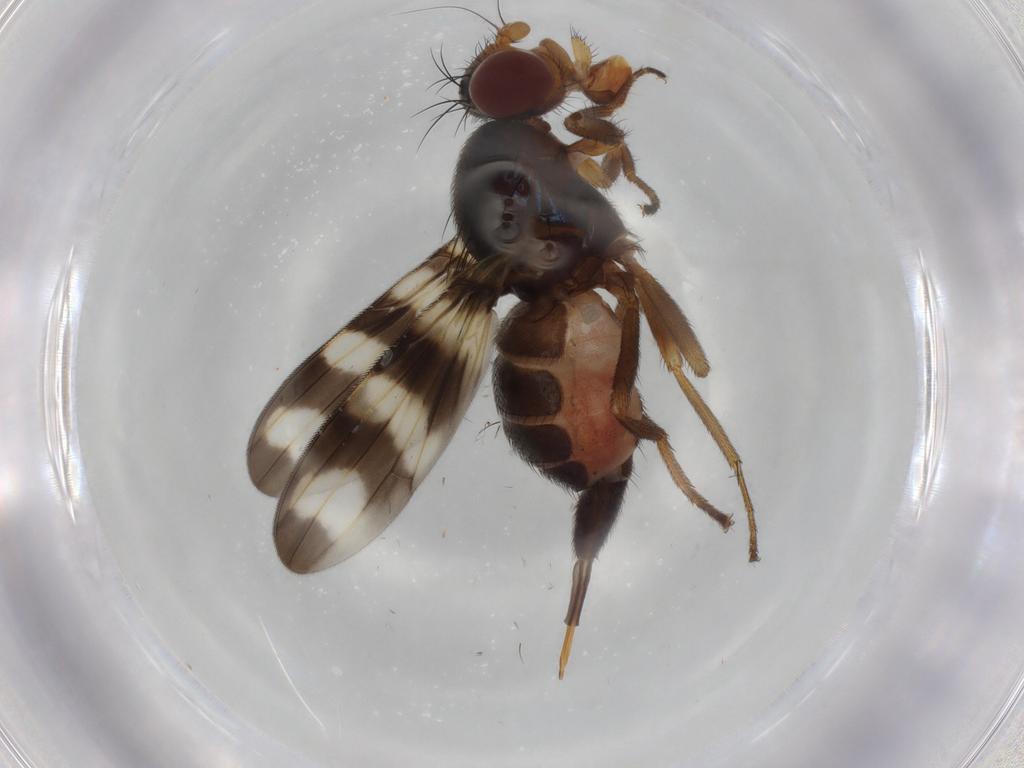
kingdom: Animalia
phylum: Arthropoda
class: Insecta
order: Diptera
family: Ulidiidae
